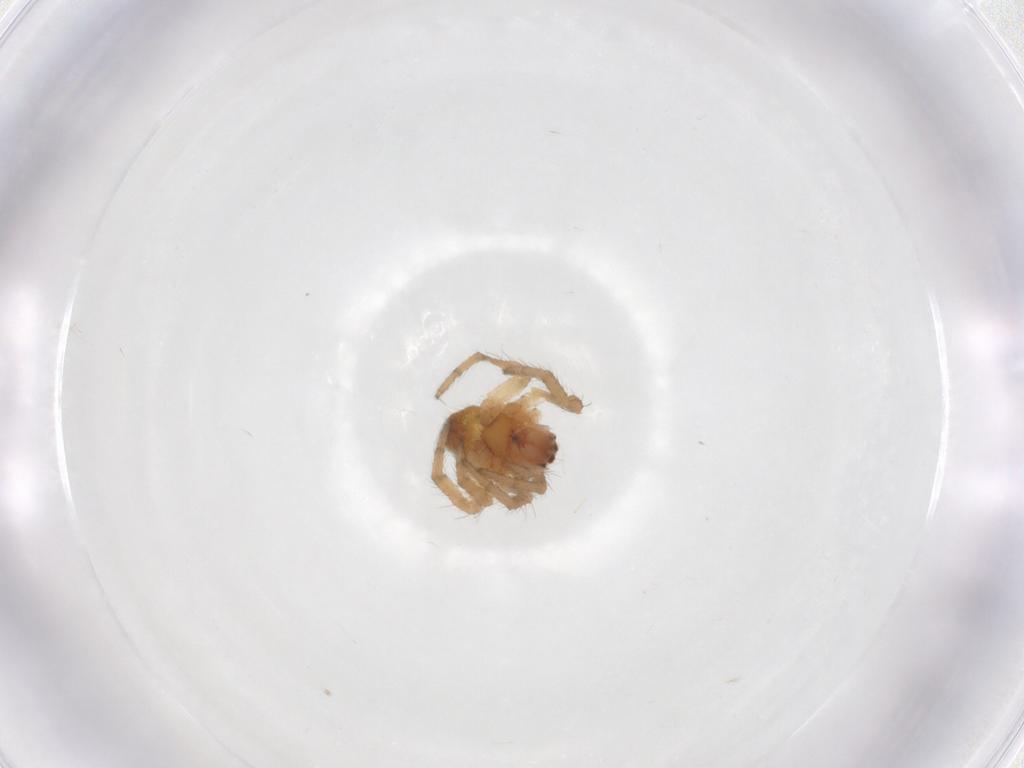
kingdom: Animalia
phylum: Arthropoda
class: Arachnida
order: Araneae
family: Araneidae
